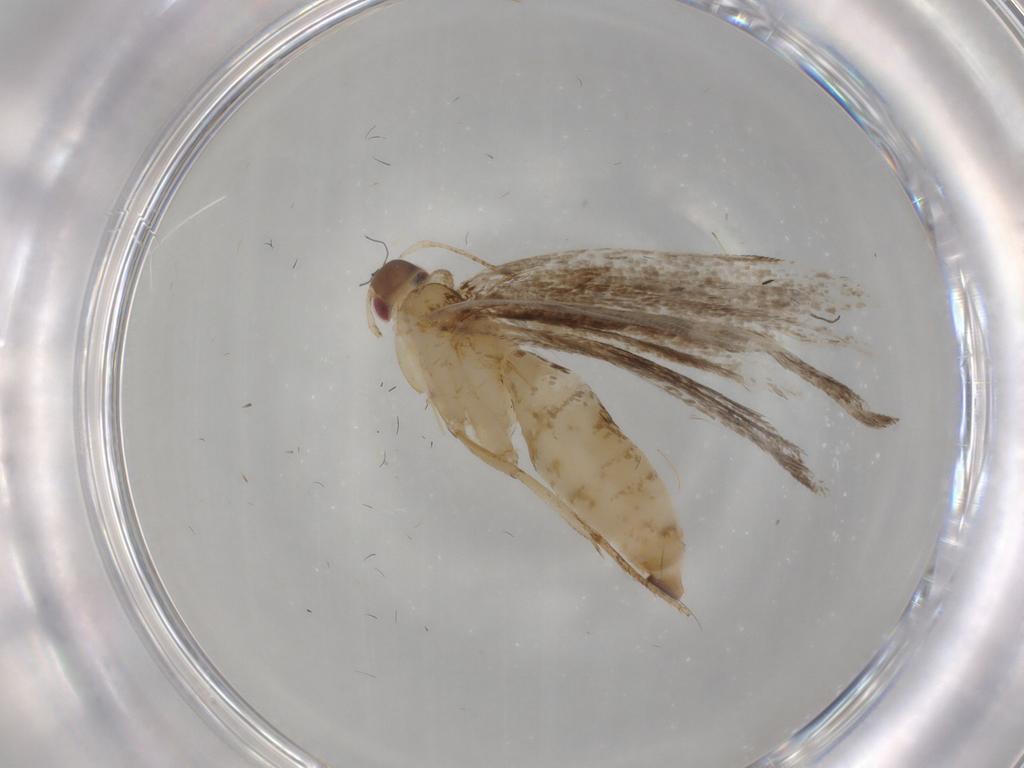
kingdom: Animalia
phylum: Arthropoda
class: Insecta
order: Lepidoptera
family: Gelechiidae
